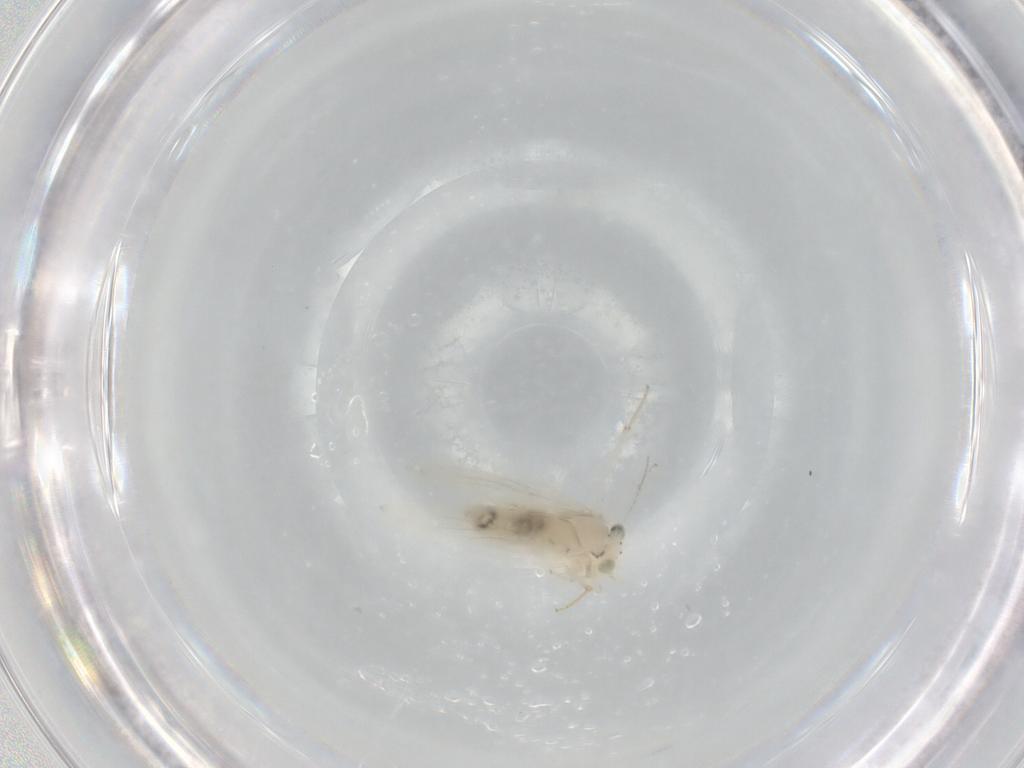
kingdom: Animalia
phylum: Arthropoda
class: Insecta
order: Psocodea
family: Lepidopsocidae
